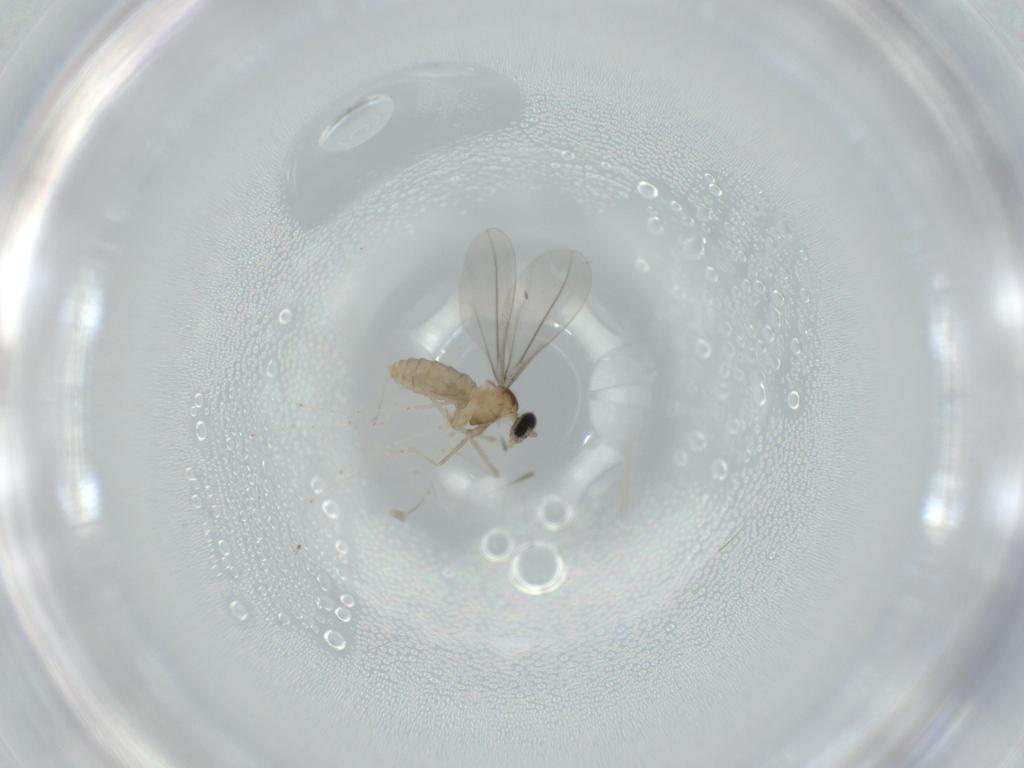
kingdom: Animalia
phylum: Arthropoda
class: Insecta
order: Diptera
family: Cecidomyiidae
